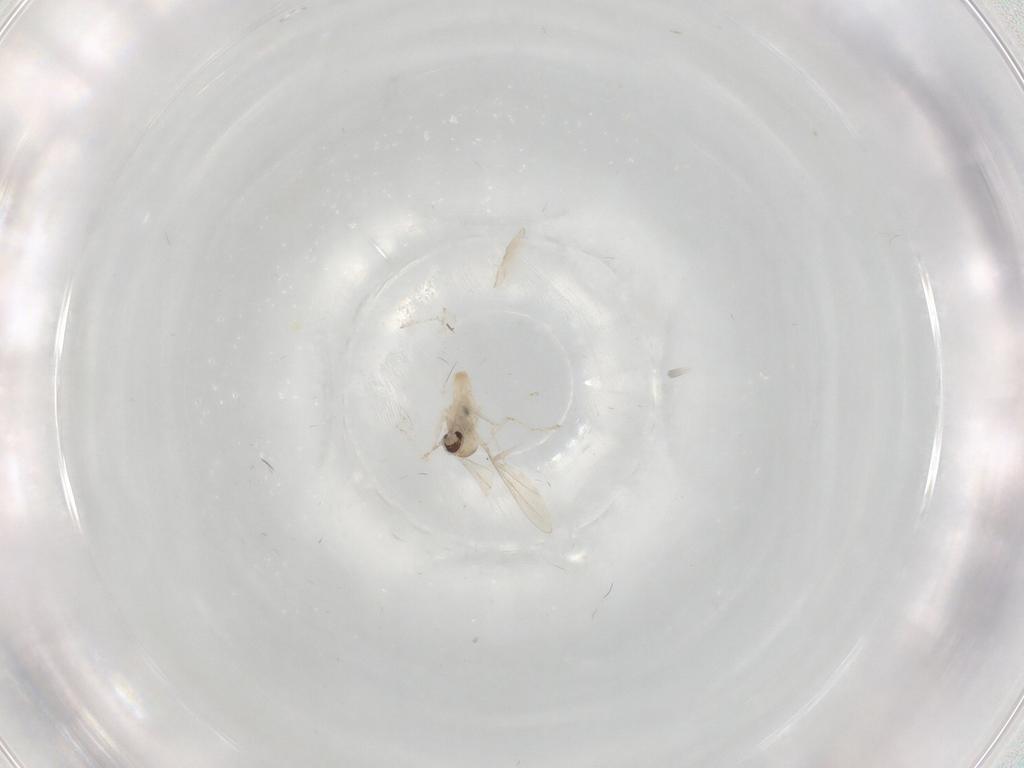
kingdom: Animalia
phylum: Arthropoda
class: Insecta
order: Diptera
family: Cecidomyiidae
